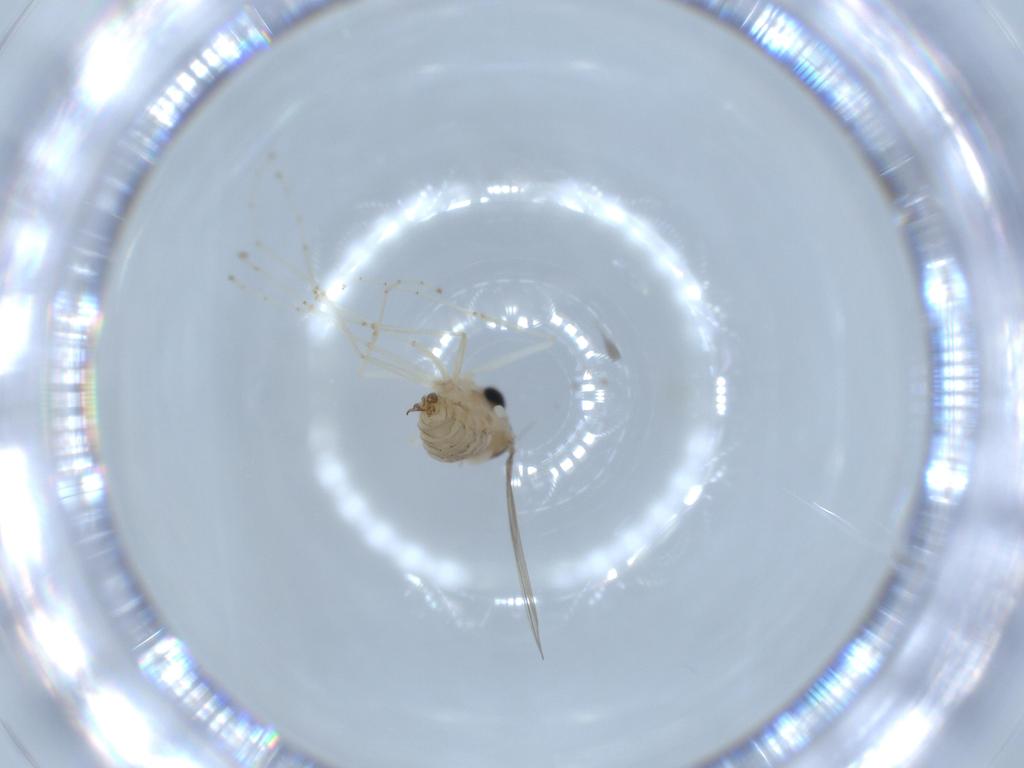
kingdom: Animalia
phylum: Arthropoda
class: Insecta
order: Diptera
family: Cecidomyiidae
